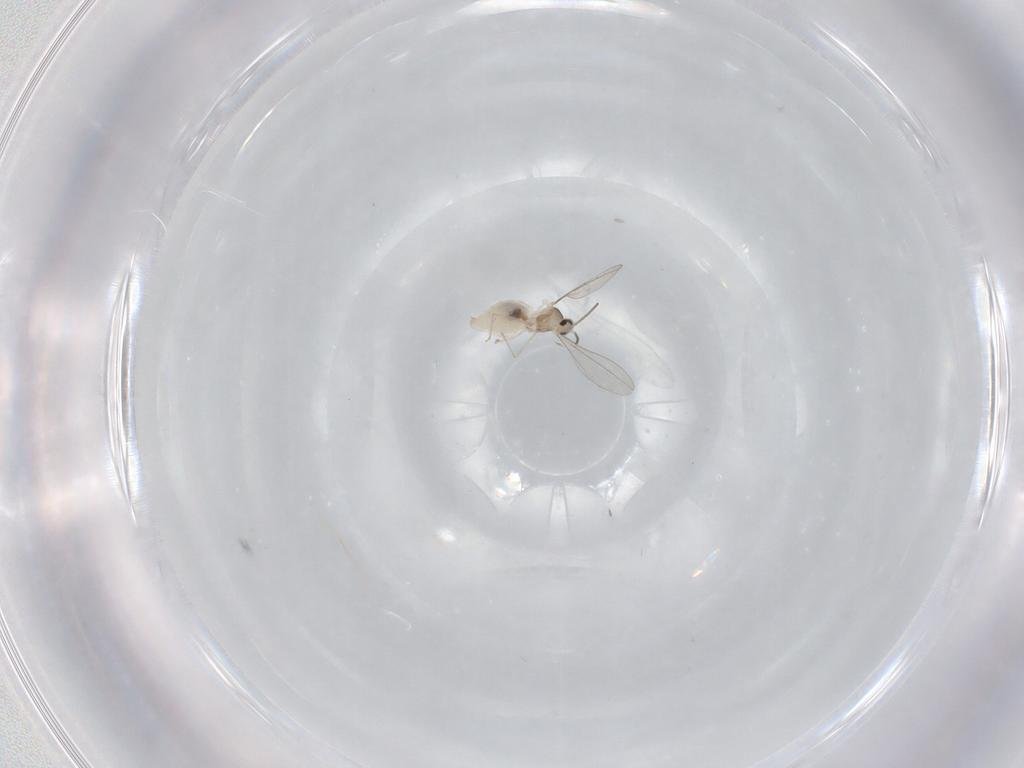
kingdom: Animalia
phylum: Arthropoda
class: Insecta
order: Diptera
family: Cecidomyiidae
